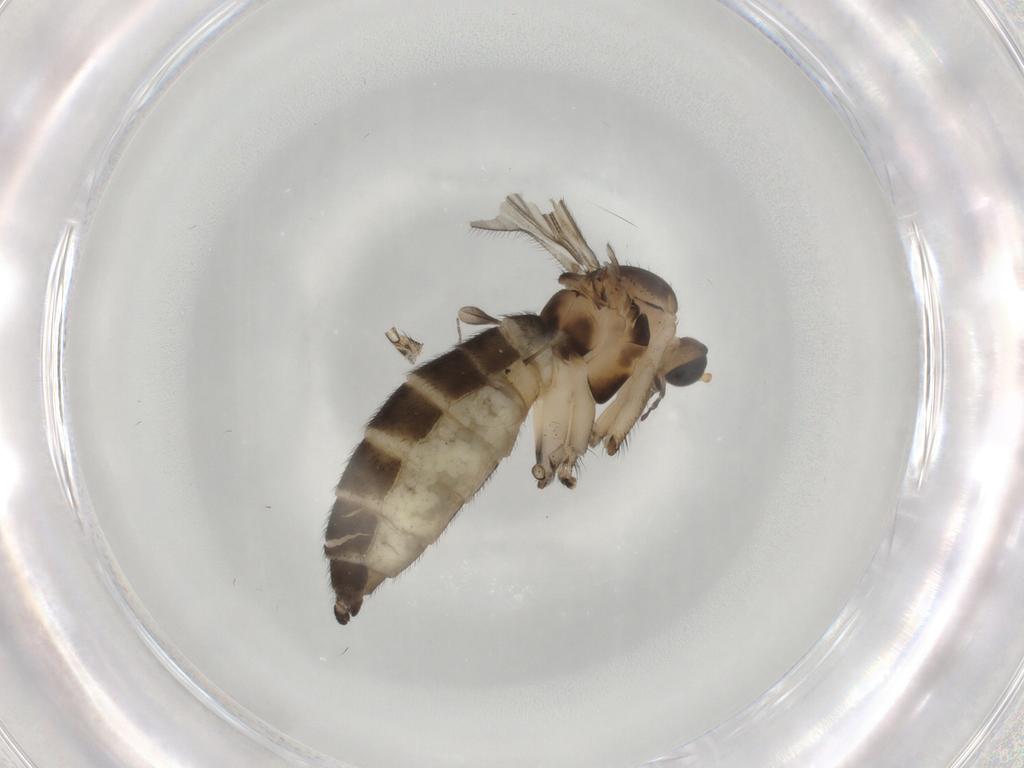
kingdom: Animalia
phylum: Arthropoda
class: Insecta
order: Diptera
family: Sciaridae
